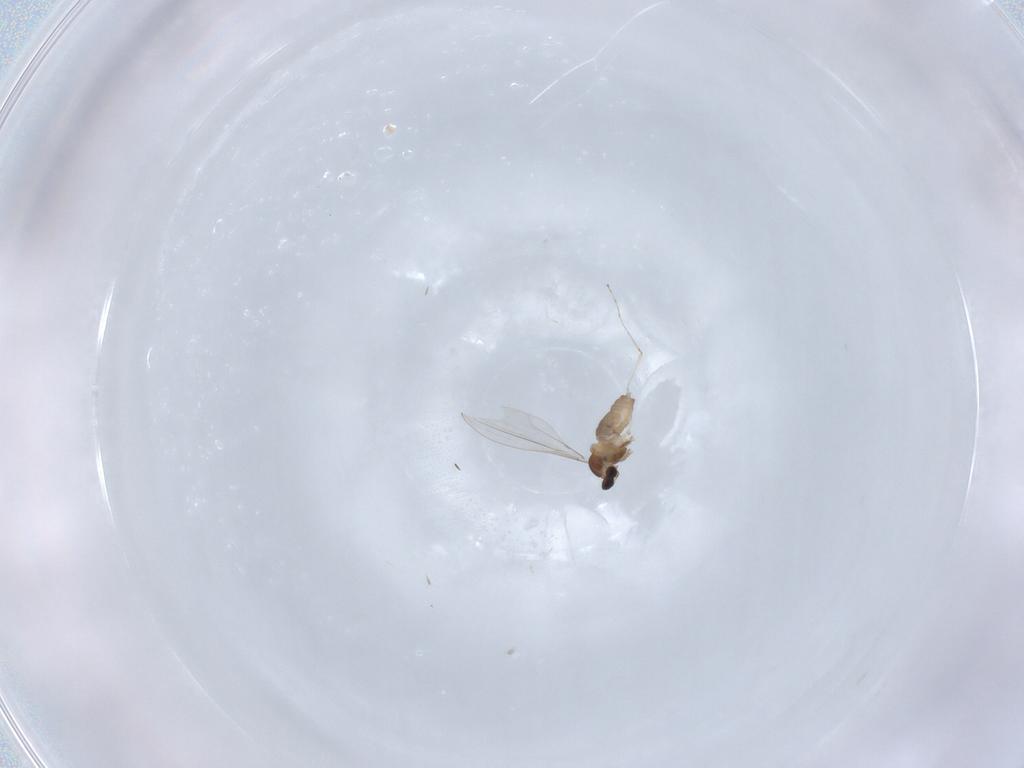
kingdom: Animalia
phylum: Arthropoda
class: Insecta
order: Diptera
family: Cecidomyiidae
